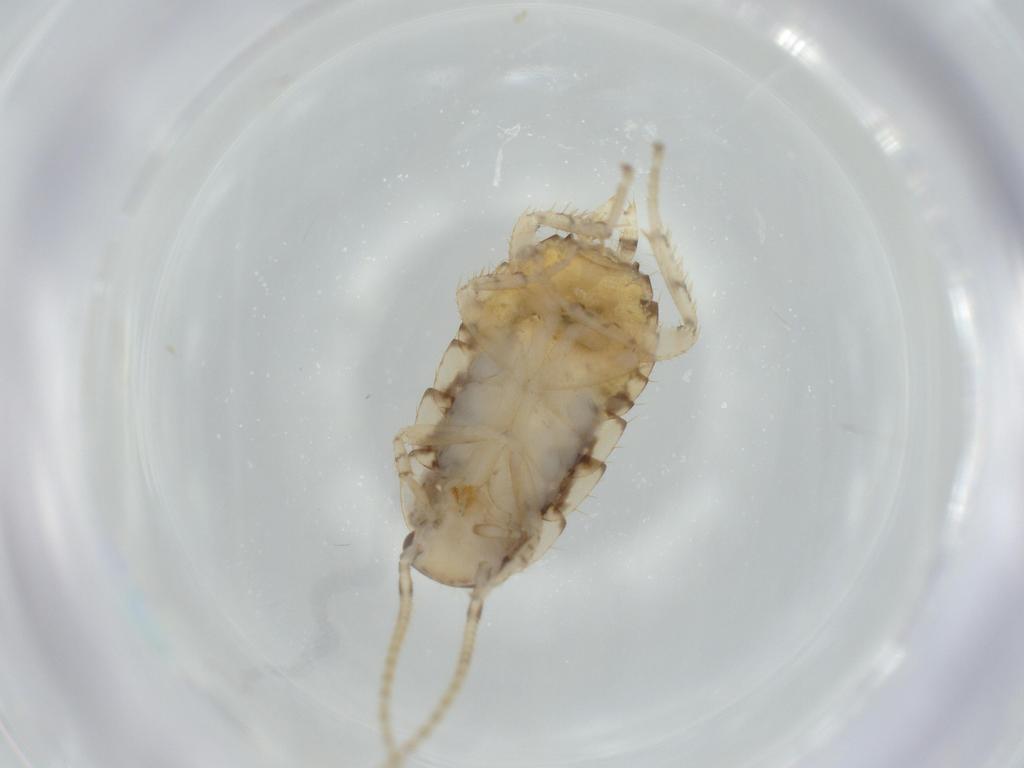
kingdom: Animalia
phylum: Arthropoda
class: Insecta
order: Blattodea
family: Ectobiidae
